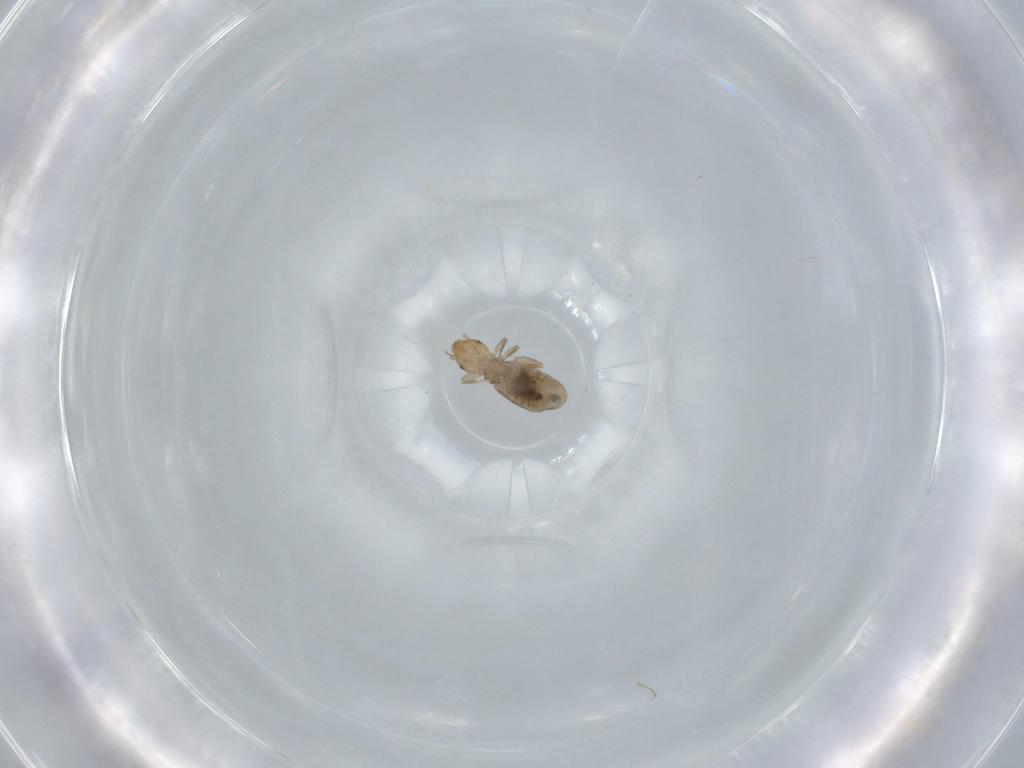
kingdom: Animalia
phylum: Arthropoda
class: Insecta
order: Psocodea
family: Liposcelididae
